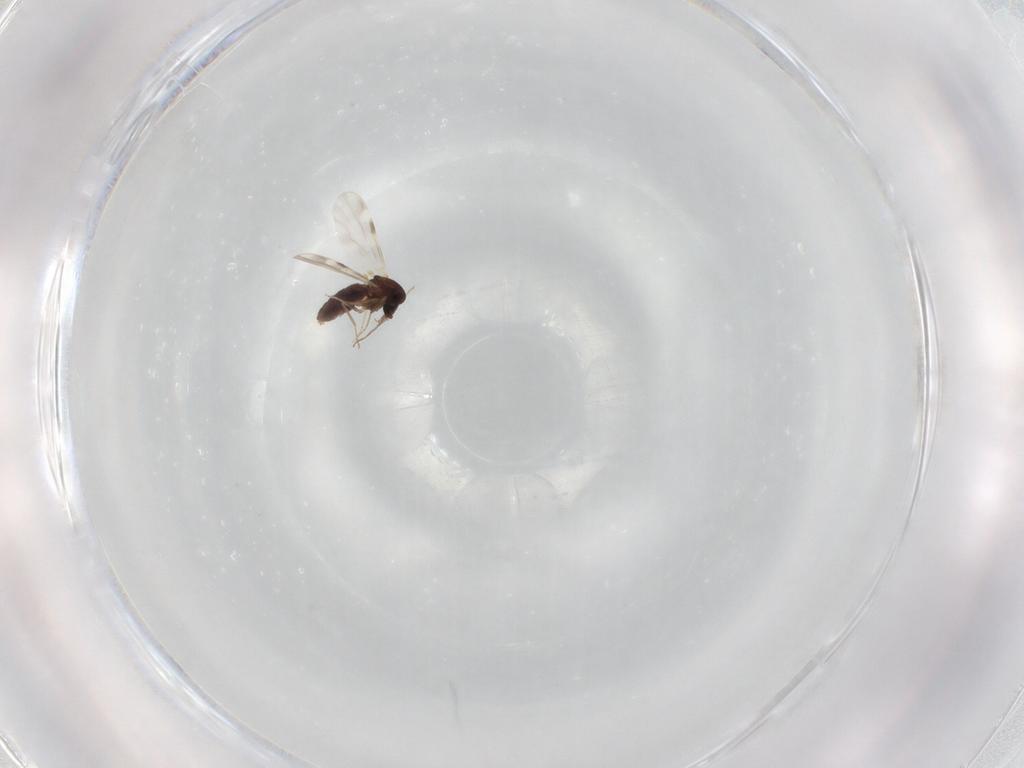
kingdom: Animalia
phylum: Arthropoda
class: Insecta
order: Diptera
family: Ceratopogonidae
